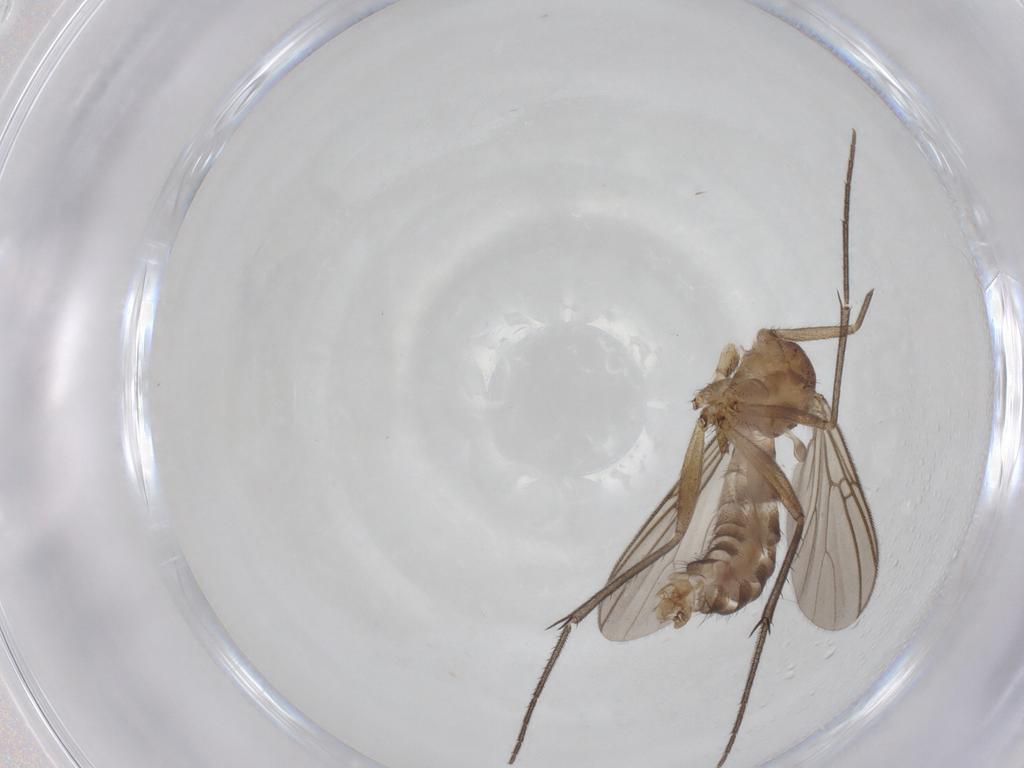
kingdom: Animalia
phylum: Arthropoda
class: Insecta
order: Diptera
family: Mycetophilidae
